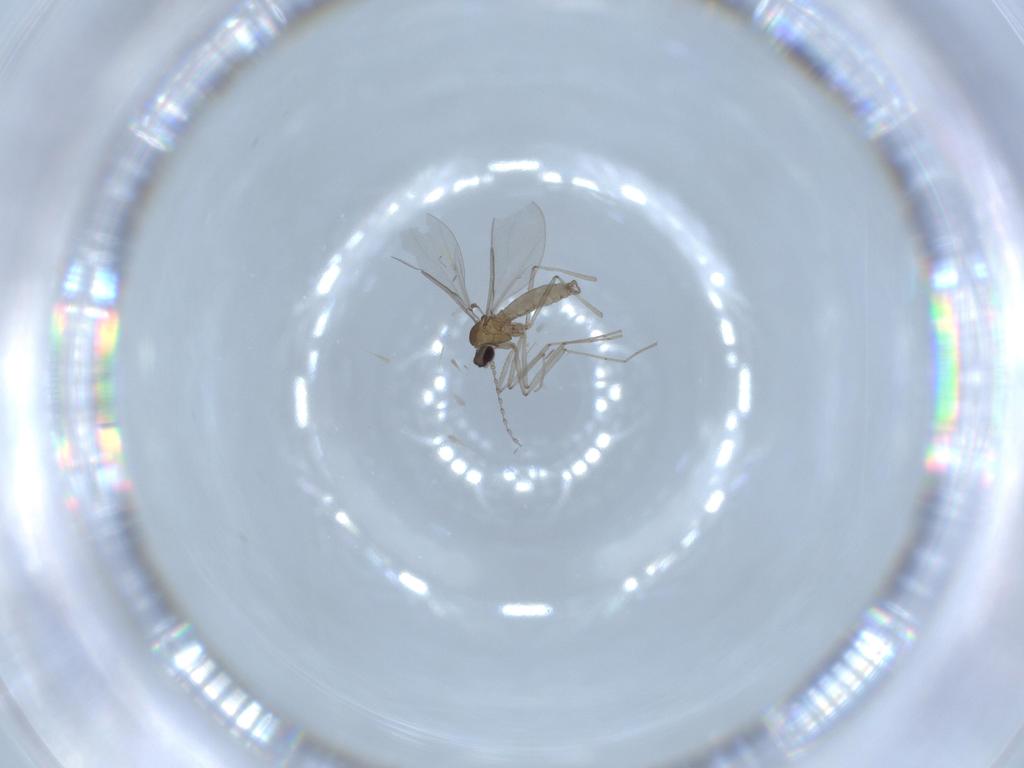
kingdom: Animalia
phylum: Arthropoda
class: Insecta
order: Diptera
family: Cecidomyiidae
